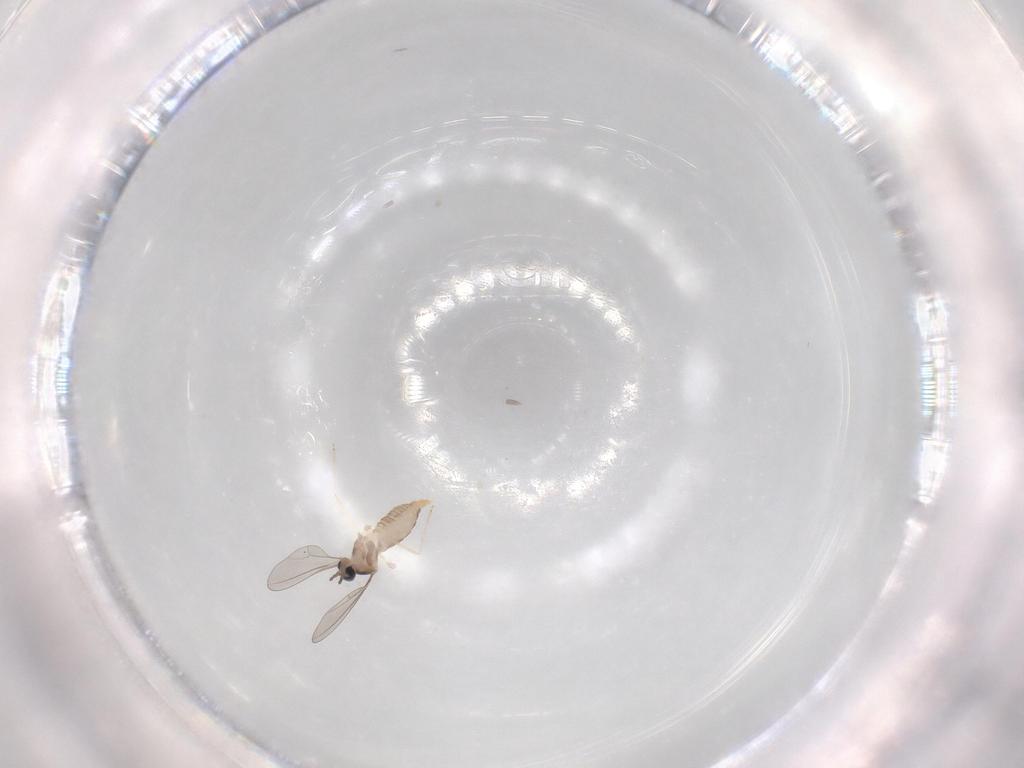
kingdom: Animalia
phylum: Arthropoda
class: Insecta
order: Diptera
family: Cecidomyiidae
